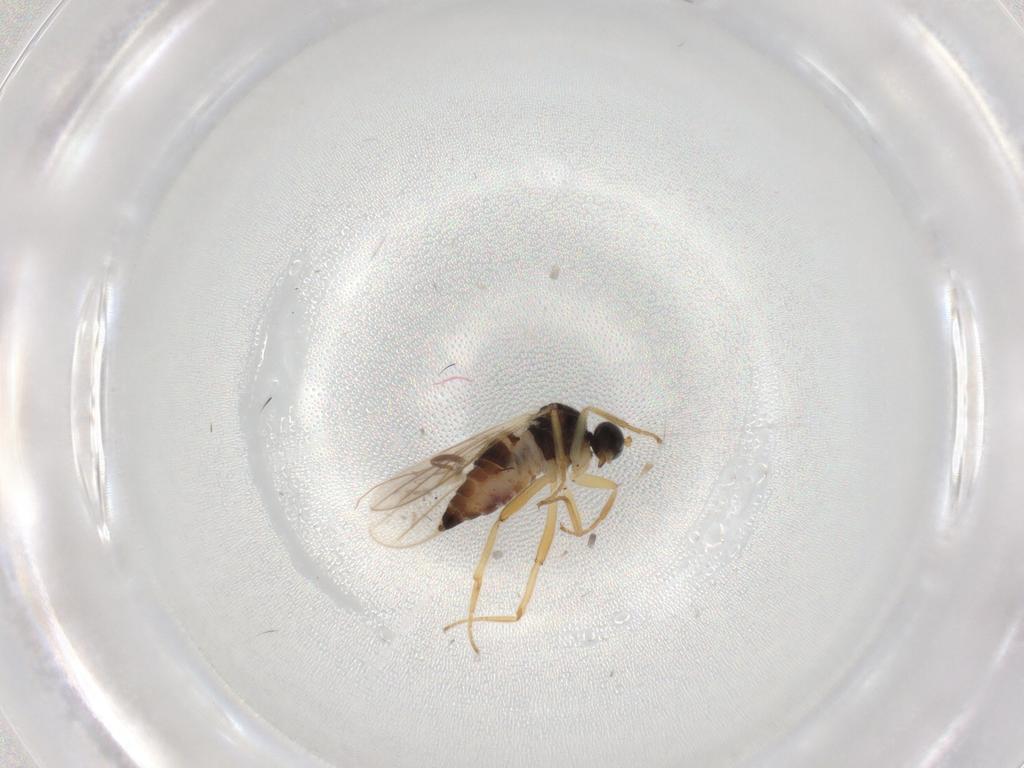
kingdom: Animalia
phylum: Arthropoda
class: Insecta
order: Diptera
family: Hybotidae
